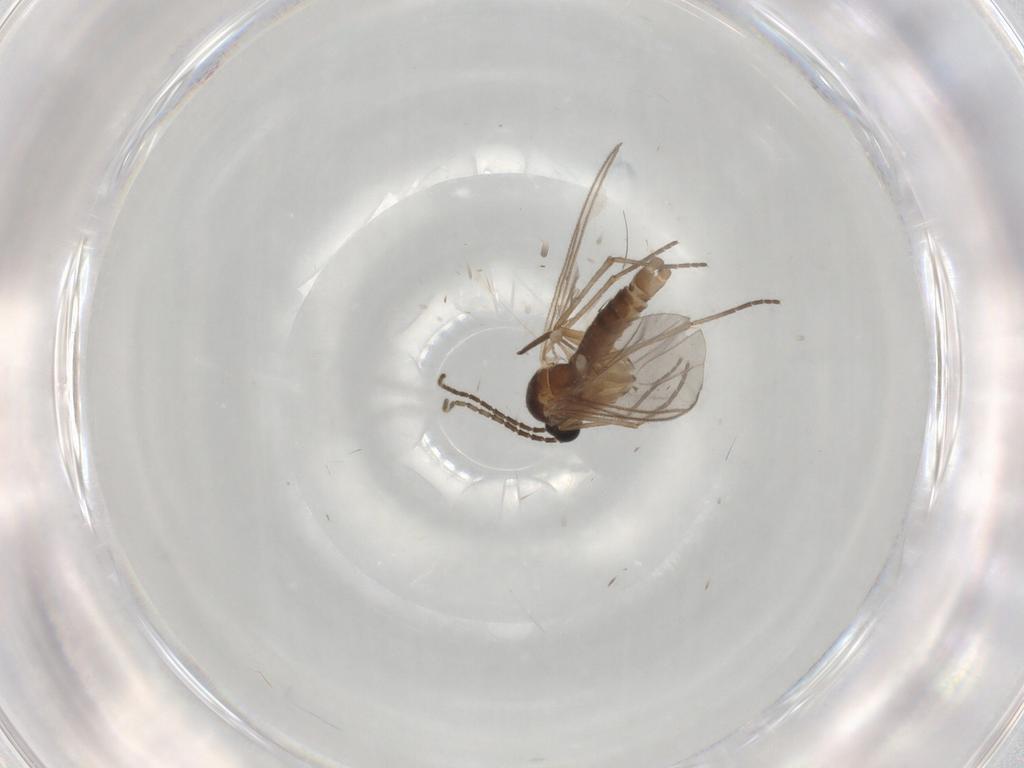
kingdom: Animalia
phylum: Arthropoda
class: Insecta
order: Diptera
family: Sciaridae
